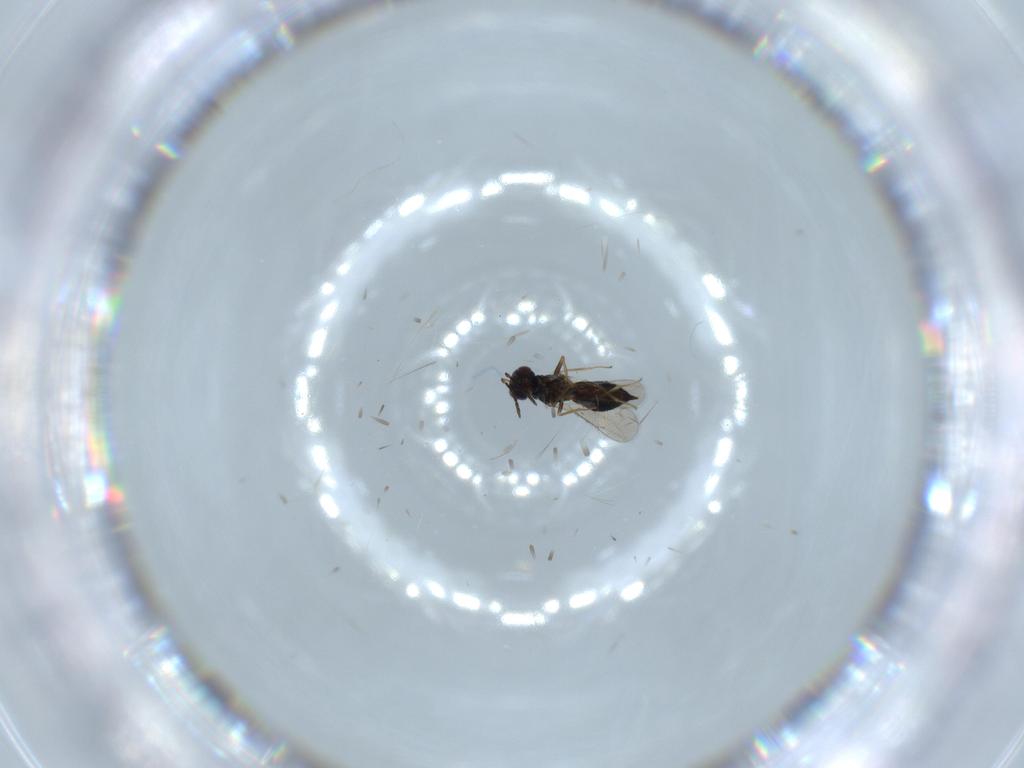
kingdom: Animalia
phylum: Arthropoda
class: Insecta
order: Hymenoptera
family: Eulophidae
